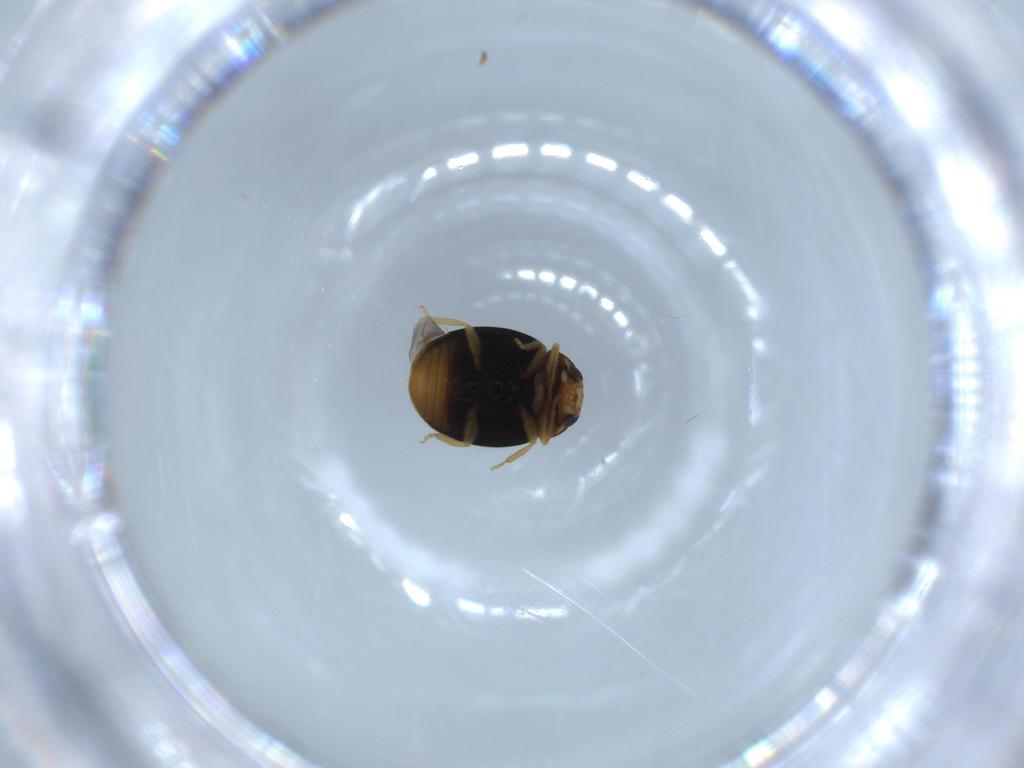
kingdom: Animalia
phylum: Arthropoda
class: Insecta
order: Coleoptera
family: Coccinellidae
